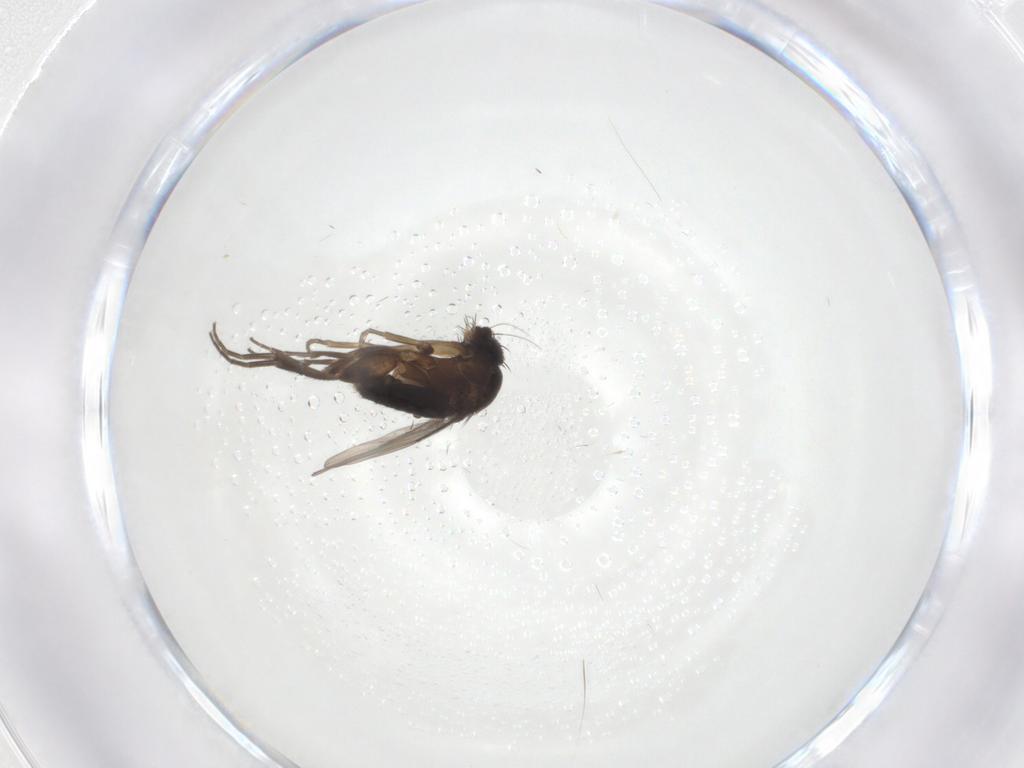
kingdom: Animalia
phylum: Arthropoda
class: Insecta
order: Diptera
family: Phoridae
